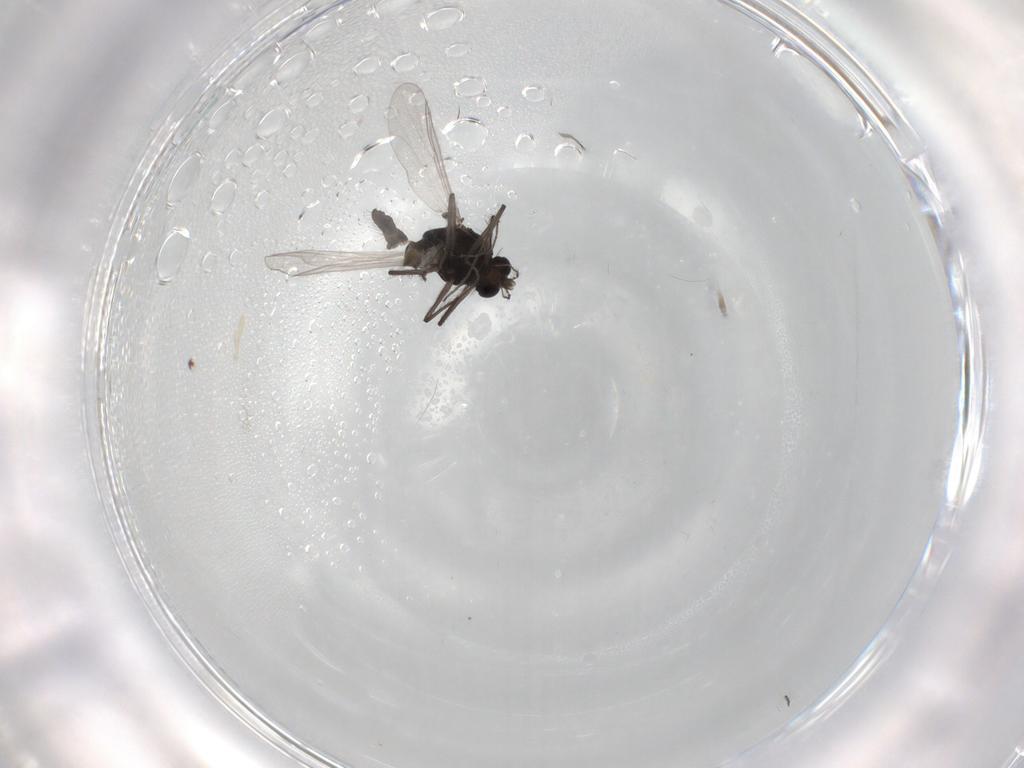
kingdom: Animalia
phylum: Arthropoda
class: Insecta
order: Diptera
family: Chironomidae
